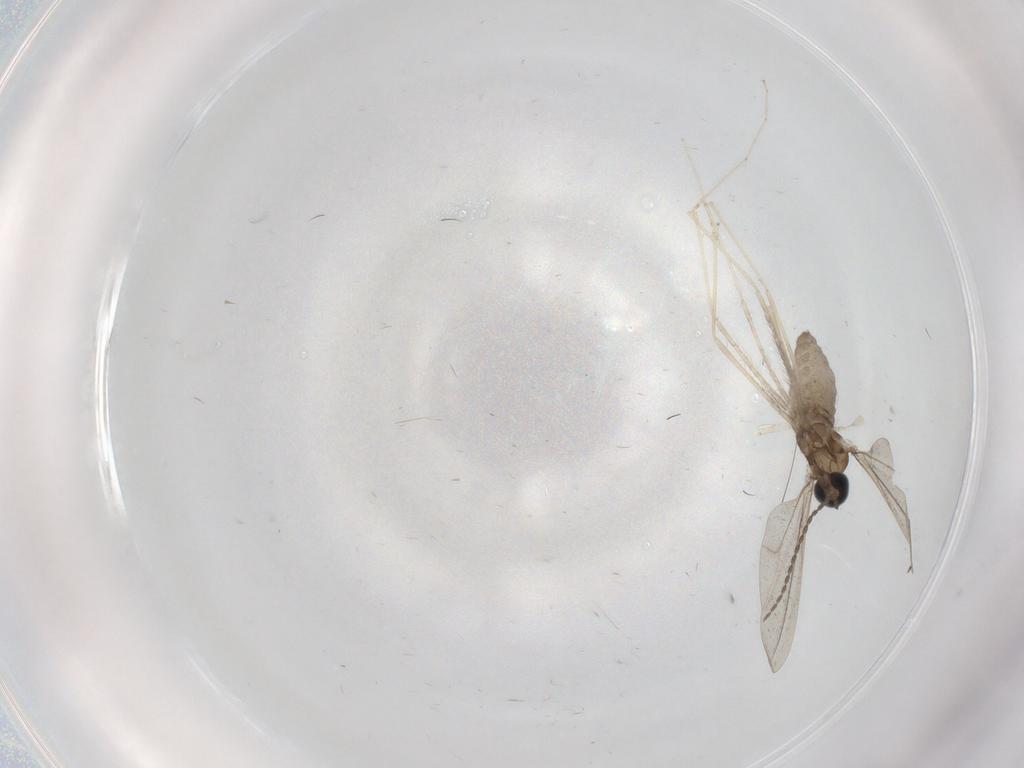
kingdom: Animalia
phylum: Arthropoda
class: Insecta
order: Diptera
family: Cecidomyiidae
